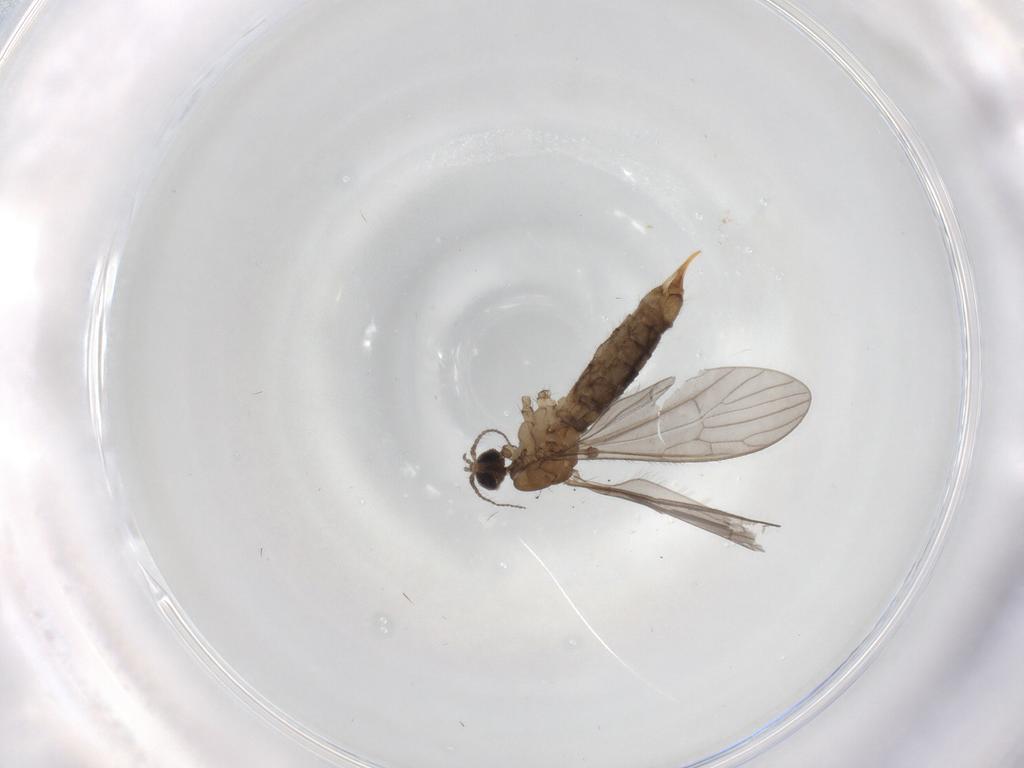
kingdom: Animalia
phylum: Arthropoda
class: Insecta
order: Diptera
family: Limoniidae
